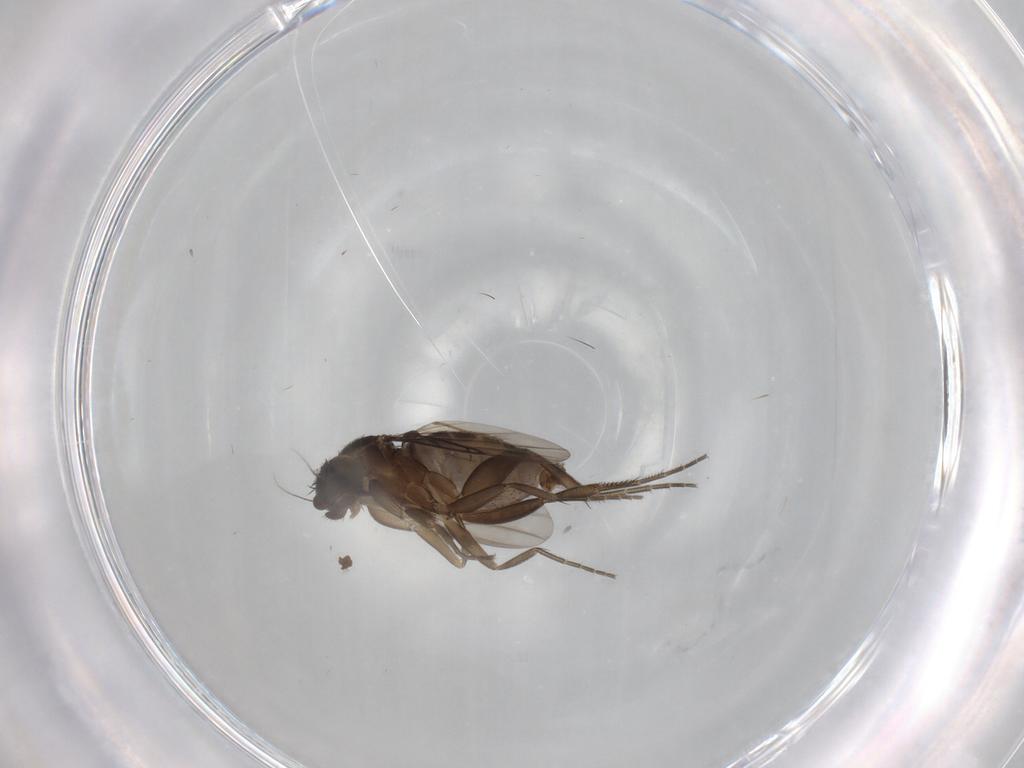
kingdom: Animalia
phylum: Arthropoda
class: Insecta
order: Diptera
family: Phoridae
